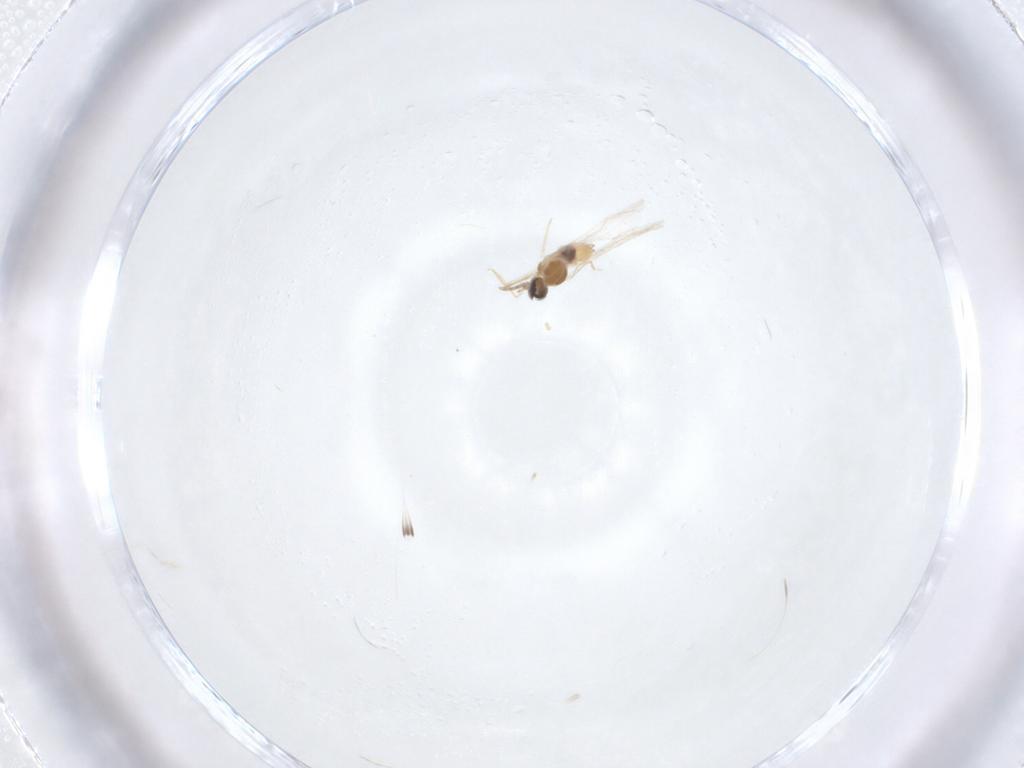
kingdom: Animalia
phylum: Arthropoda
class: Insecta
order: Diptera
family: Cecidomyiidae
